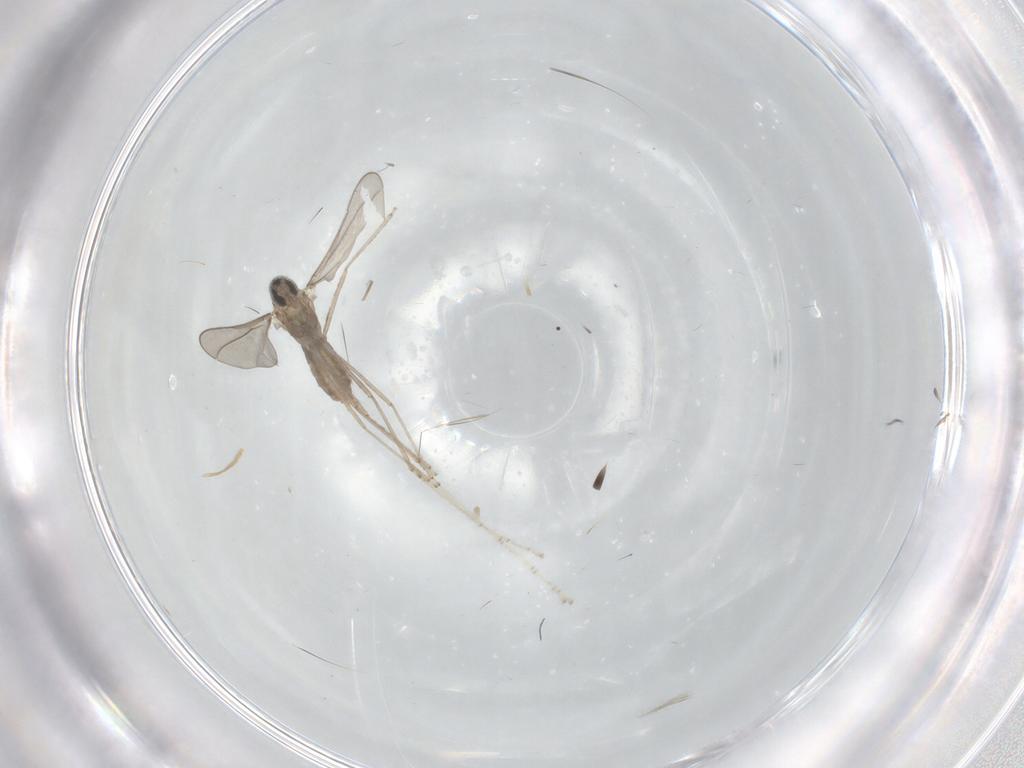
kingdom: Animalia
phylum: Arthropoda
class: Insecta
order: Diptera
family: Cecidomyiidae
